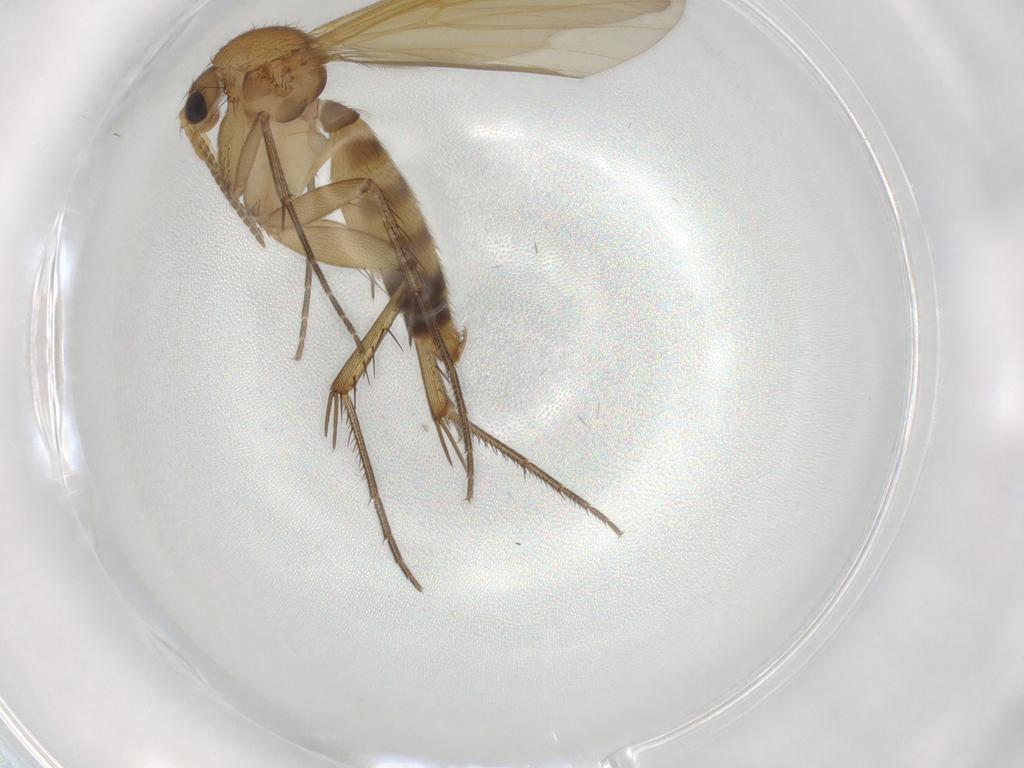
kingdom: Animalia
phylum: Arthropoda
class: Insecta
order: Diptera
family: Mycetophilidae
